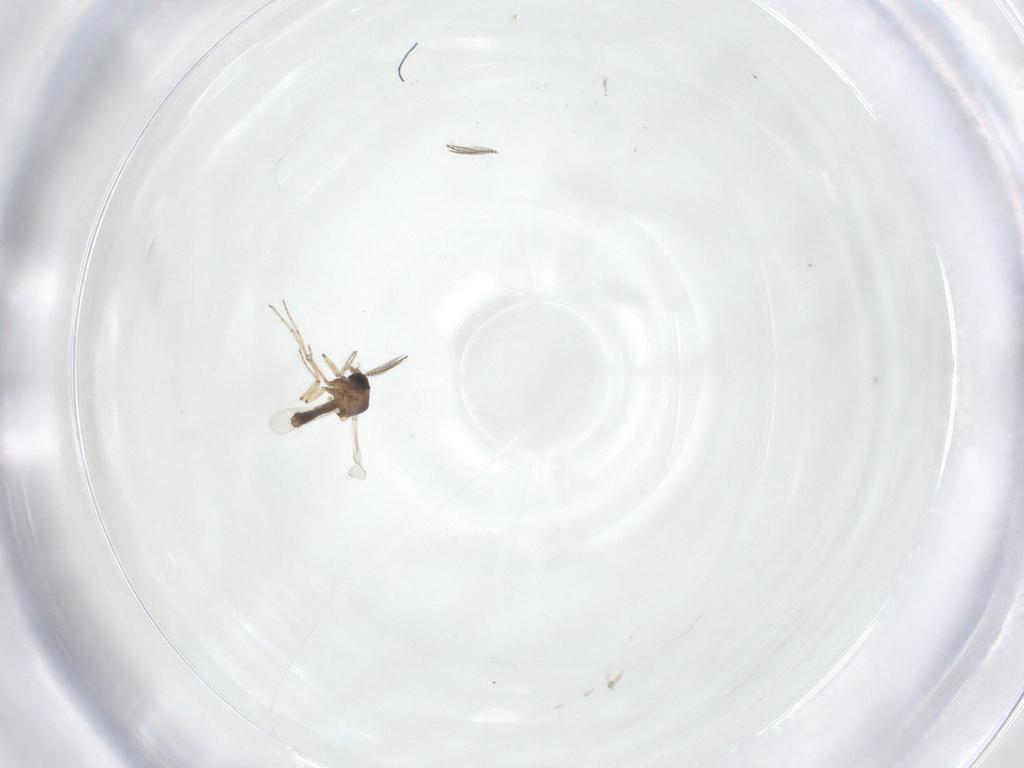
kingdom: Animalia
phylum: Arthropoda
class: Insecta
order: Diptera
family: Ceratopogonidae
